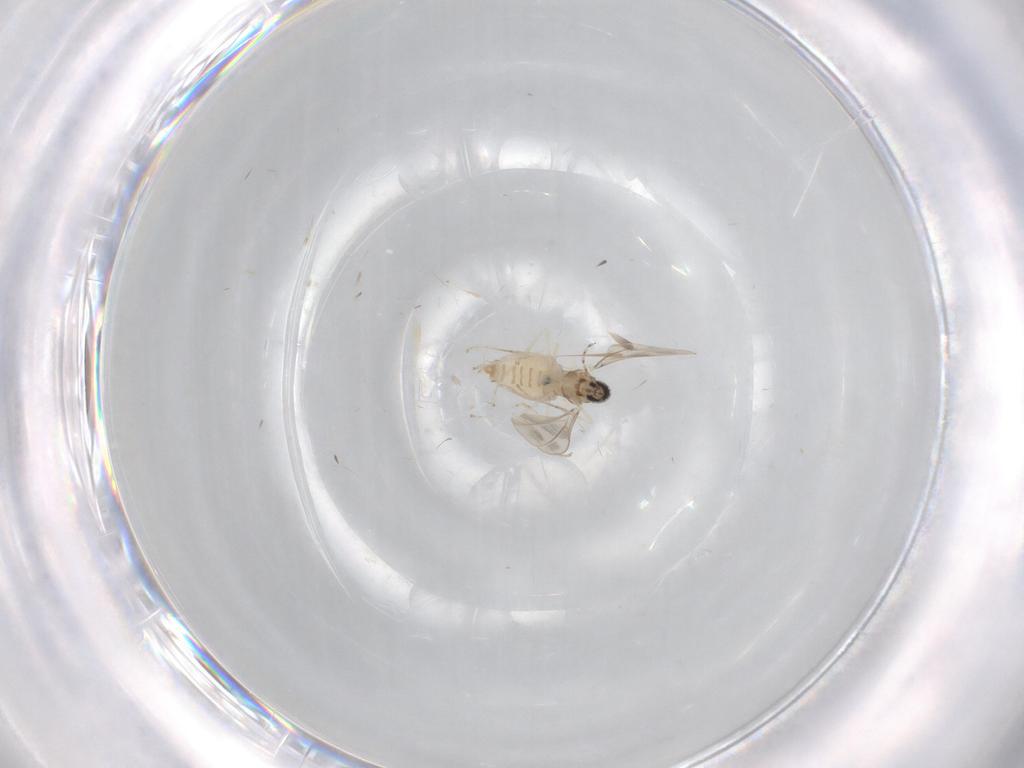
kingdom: Animalia
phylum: Arthropoda
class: Insecta
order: Diptera
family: Cecidomyiidae
